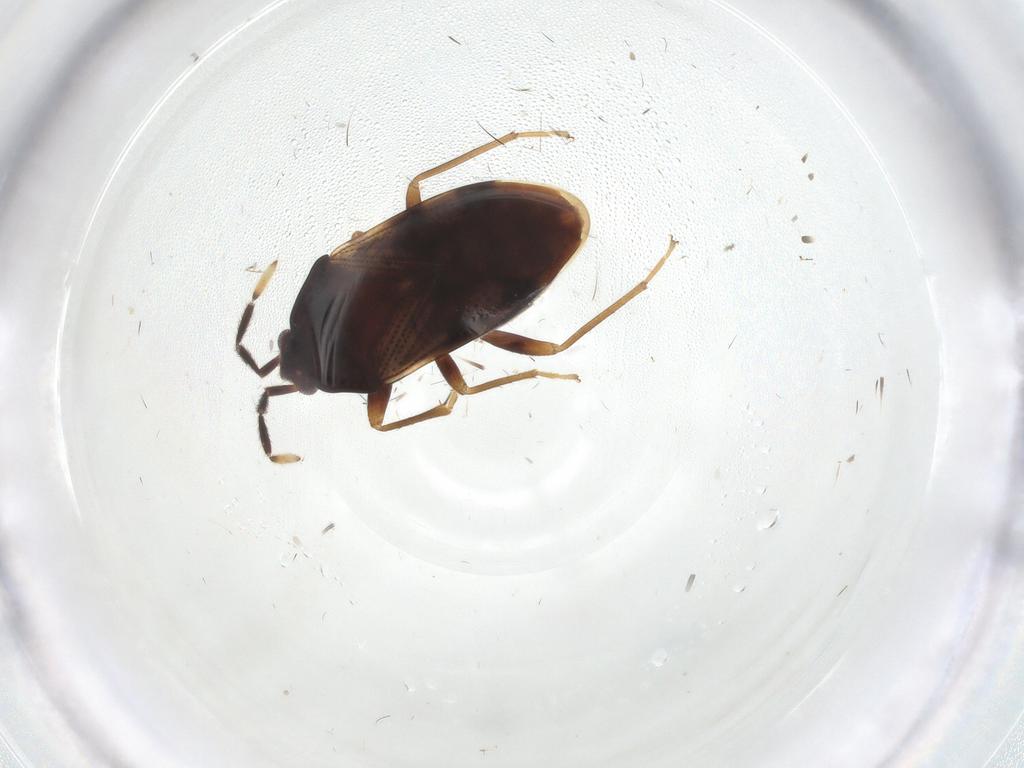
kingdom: Animalia
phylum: Arthropoda
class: Insecta
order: Hemiptera
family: Rhyparochromidae
